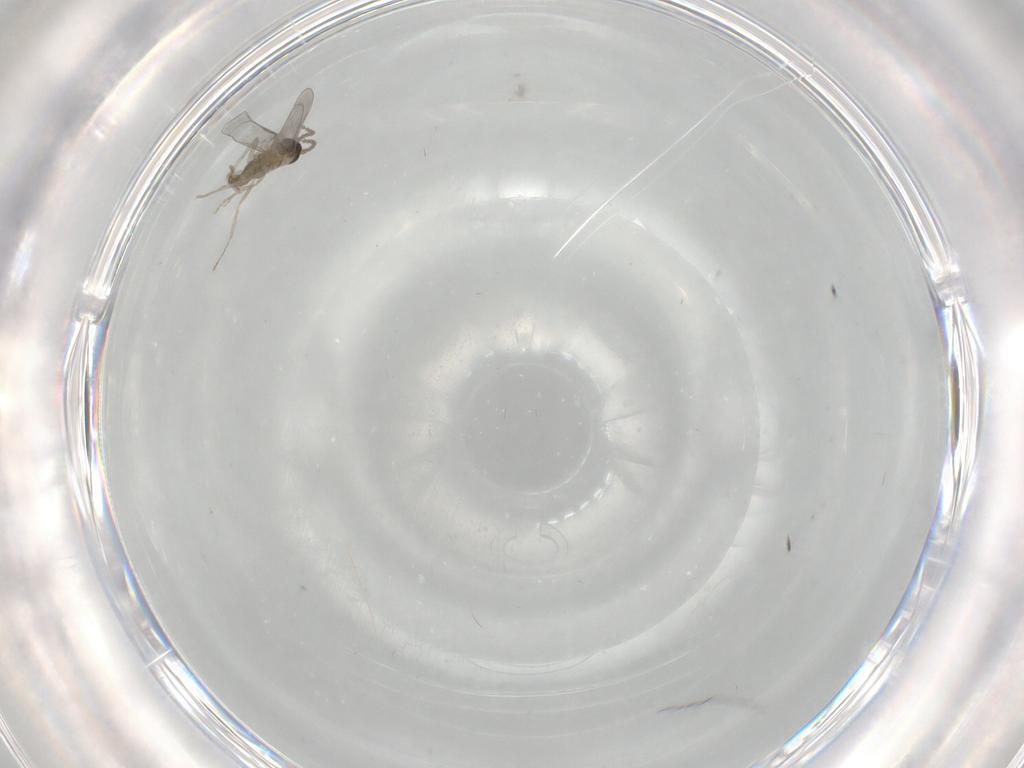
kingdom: Animalia
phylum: Arthropoda
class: Insecta
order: Diptera
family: Cecidomyiidae
